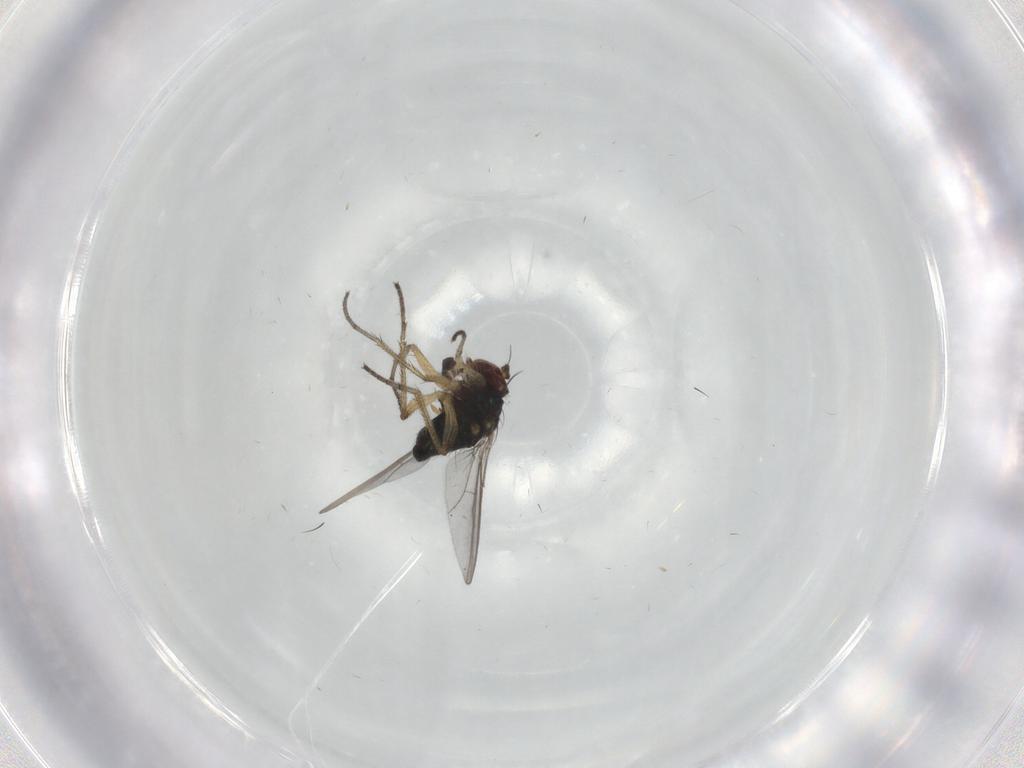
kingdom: Animalia
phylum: Arthropoda
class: Insecta
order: Diptera
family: Dolichopodidae
